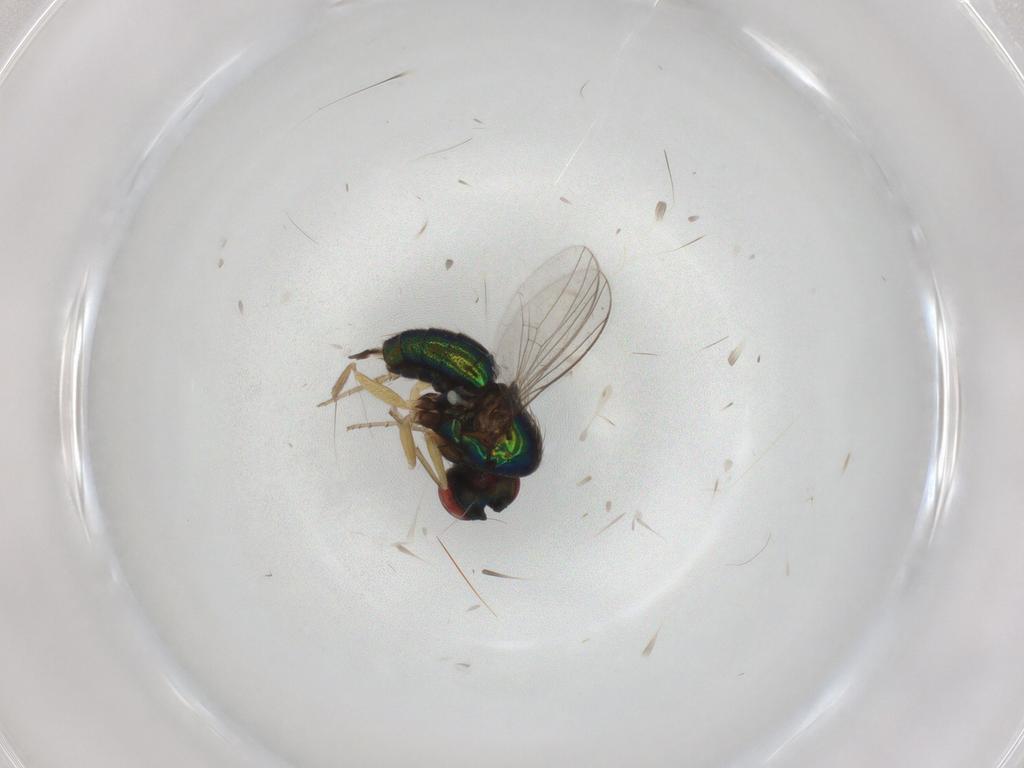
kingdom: Animalia
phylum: Arthropoda
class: Insecta
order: Diptera
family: Dolichopodidae
